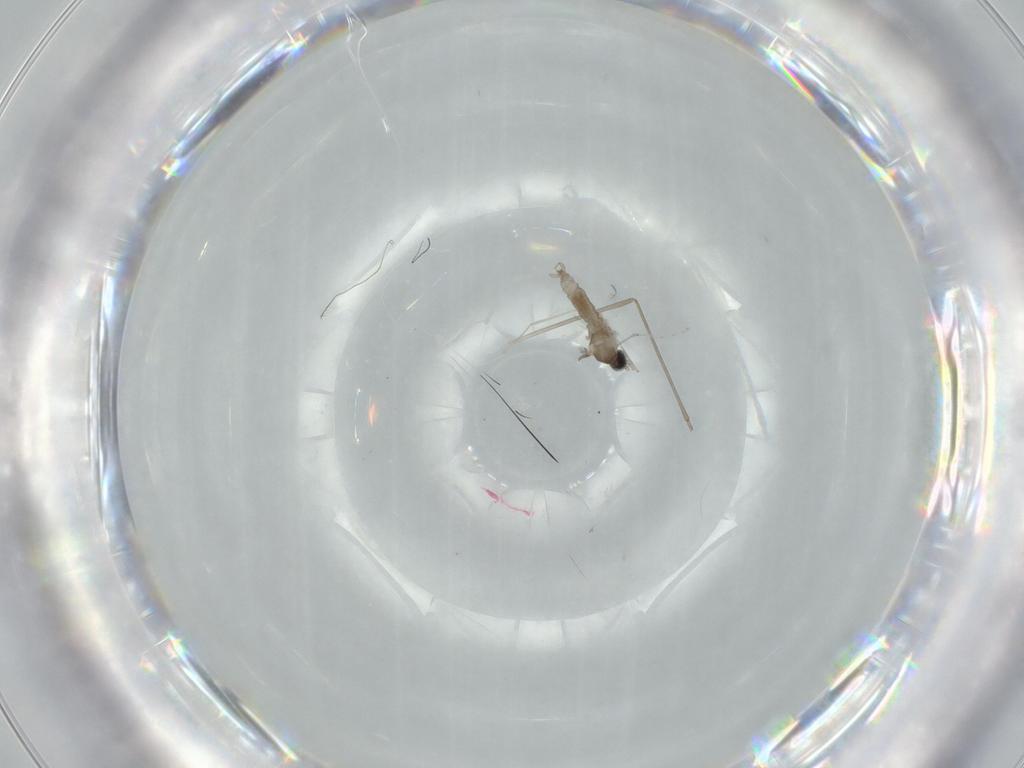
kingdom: Animalia
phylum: Arthropoda
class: Insecta
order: Diptera
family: Cecidomyiidae
